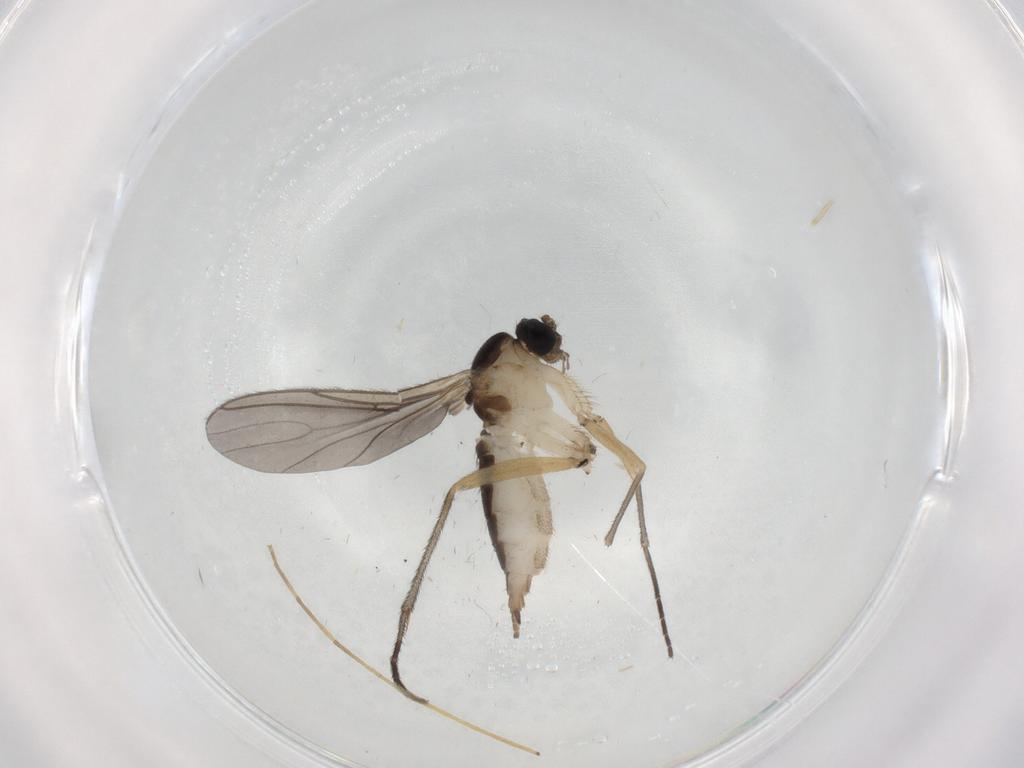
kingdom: Animalia
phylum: Arthropoda
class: Insecta
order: Diptera
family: Sciaridae
